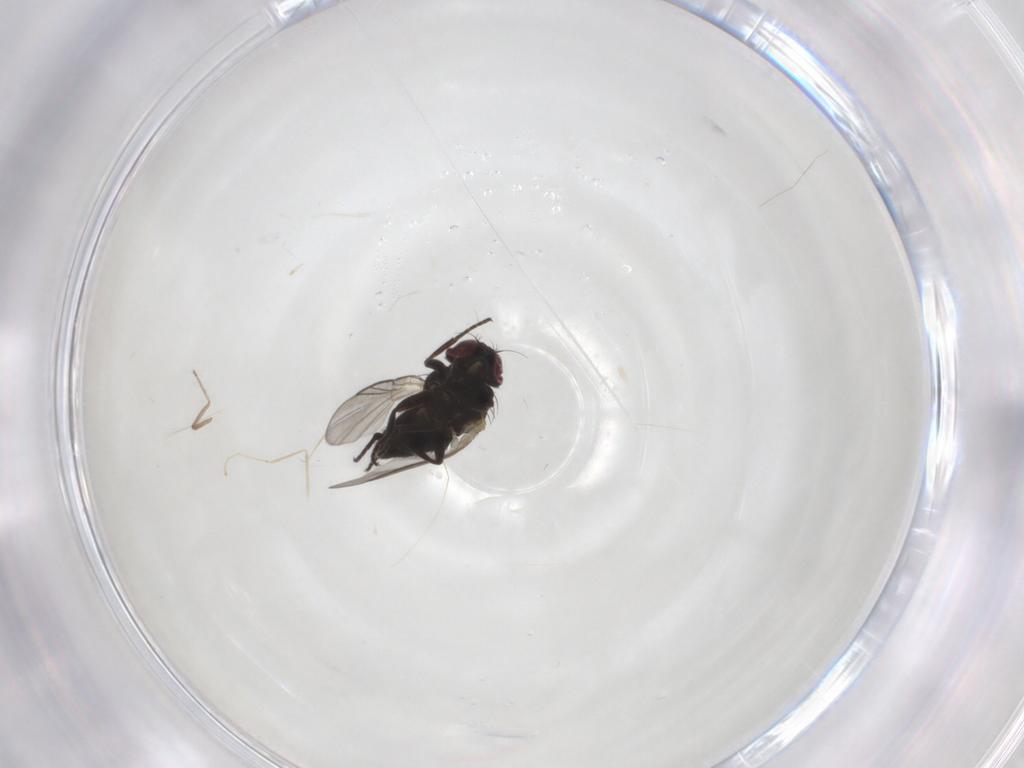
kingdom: Animalia
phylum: Arthropoda
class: Insecta
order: Diptera
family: Cecidomyiidae
